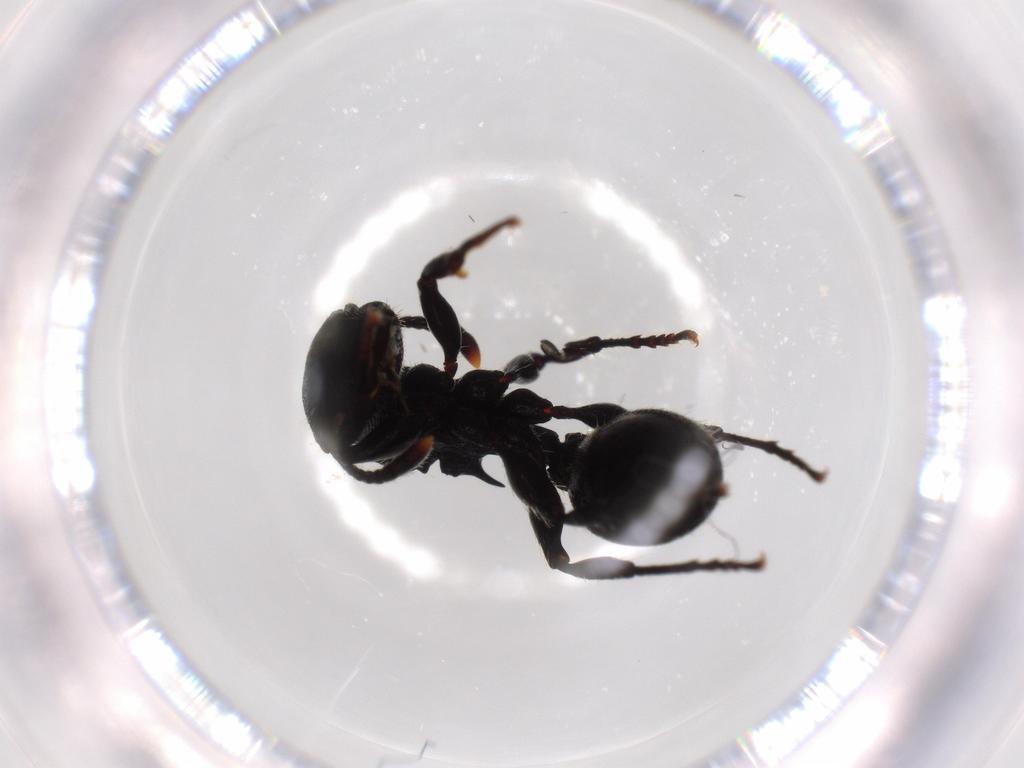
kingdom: Animalia
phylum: Arthropoda
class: Insecta
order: Hymenoptera
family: Formicidae
